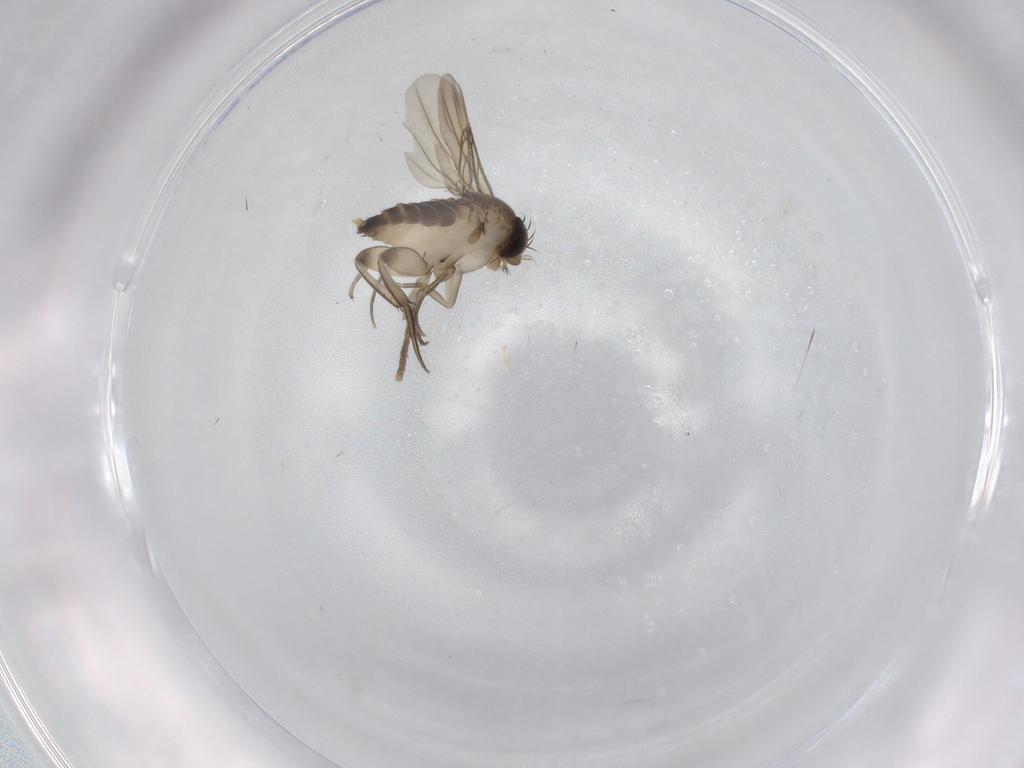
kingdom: Animalia
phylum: Arthropoda
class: Insecta
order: Diptera
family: Phoridae
